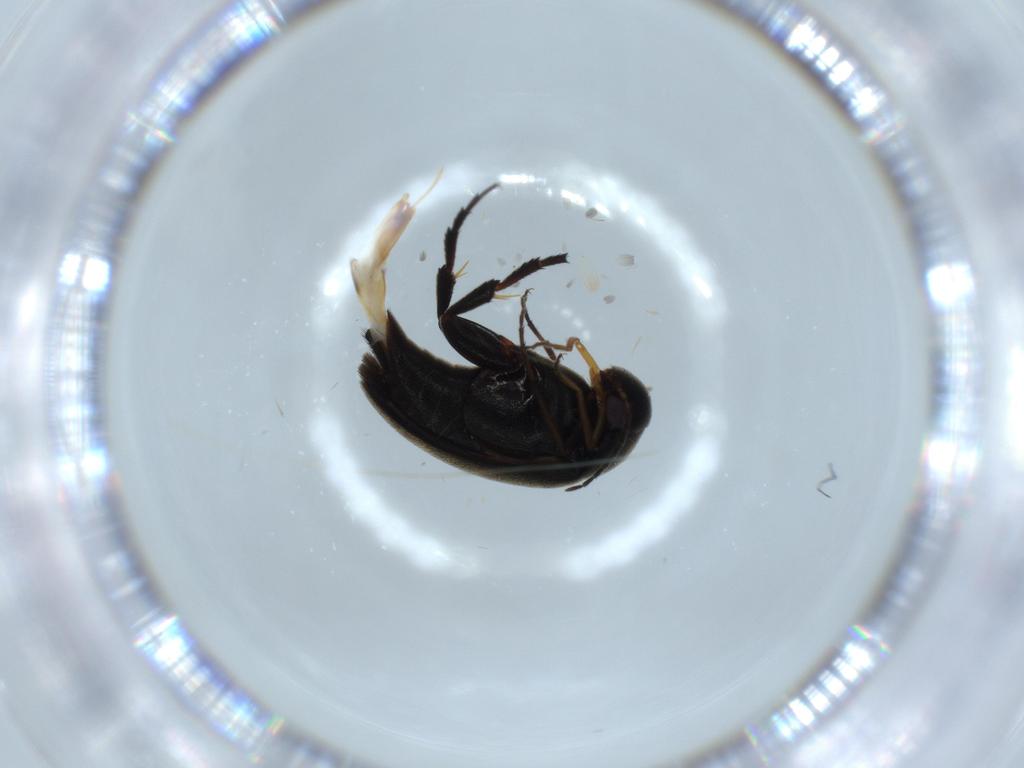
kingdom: Animalia
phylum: Arthropoda
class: Insecta
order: Coleoptera
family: Mordellidae
